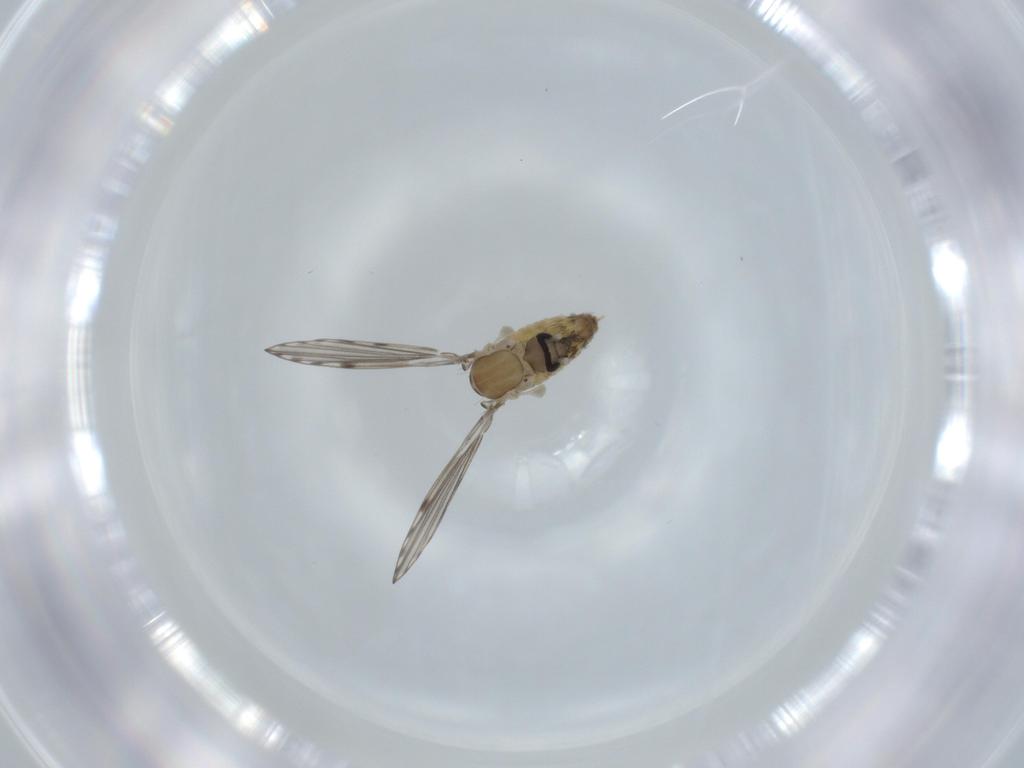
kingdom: Animalia
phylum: Arthropoda
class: Insecta
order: Diptera
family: Psychodidae
